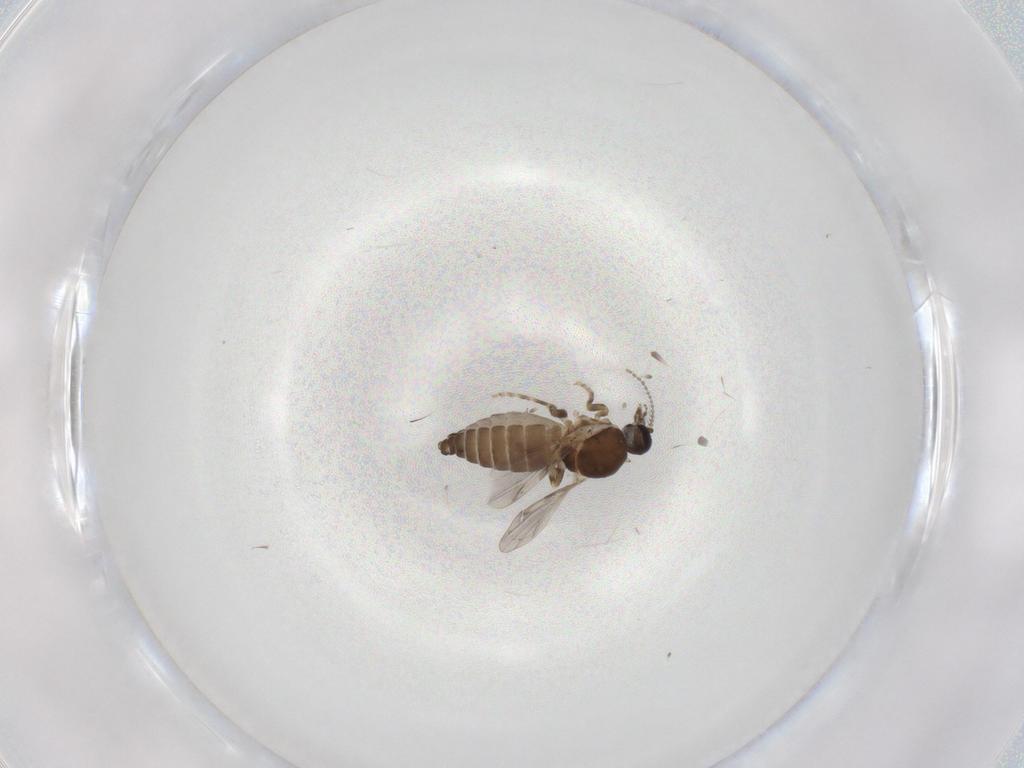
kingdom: Animalia
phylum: Arthropoda
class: Insecta
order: Diptera
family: Ceratopogonidae
